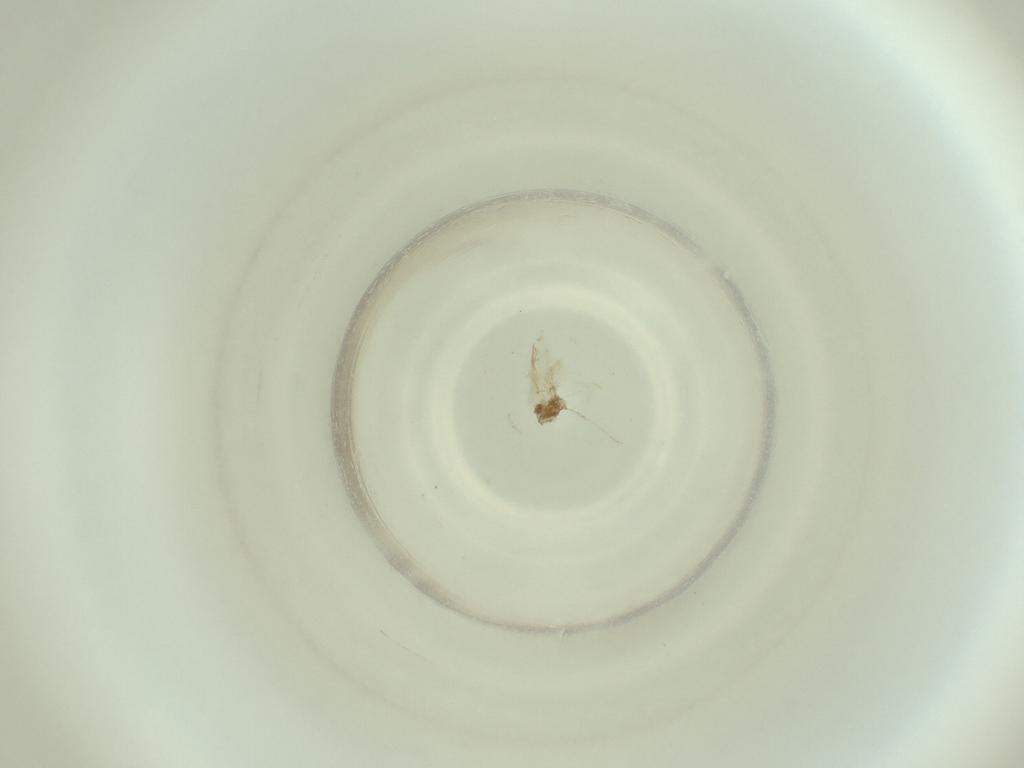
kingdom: Animalia
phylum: Arthropoda
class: Insecta
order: Diptera
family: Cecidomyiidae
